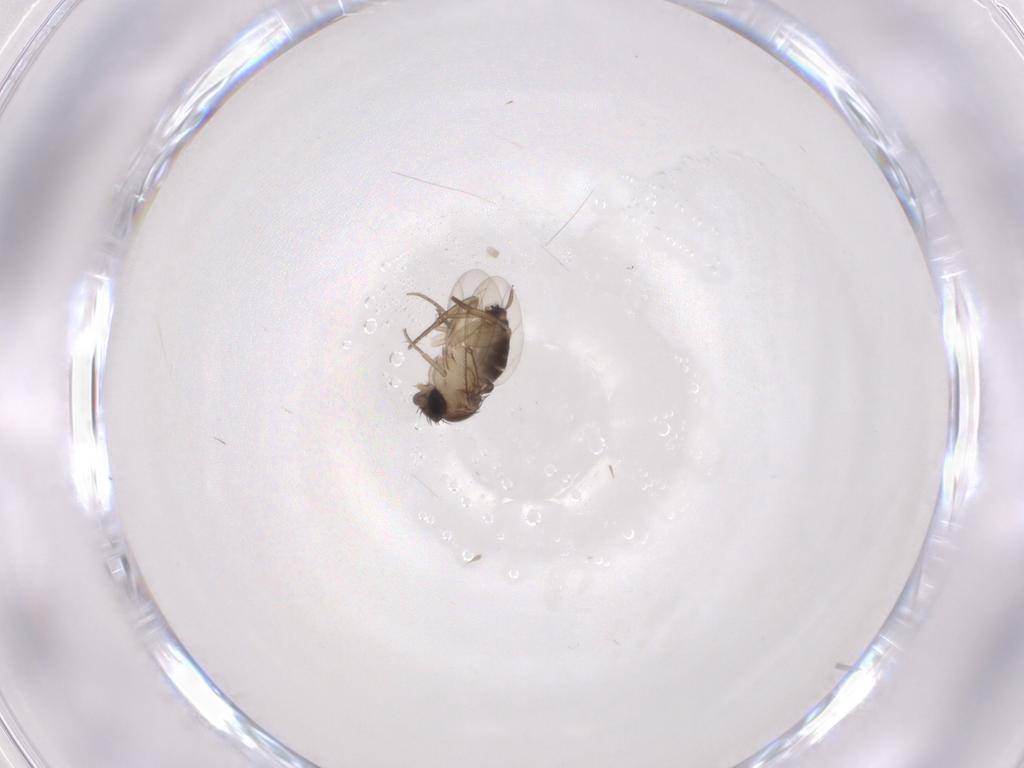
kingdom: Animalia
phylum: Arthropoda
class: Insecta
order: Diptera
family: Phoridae
